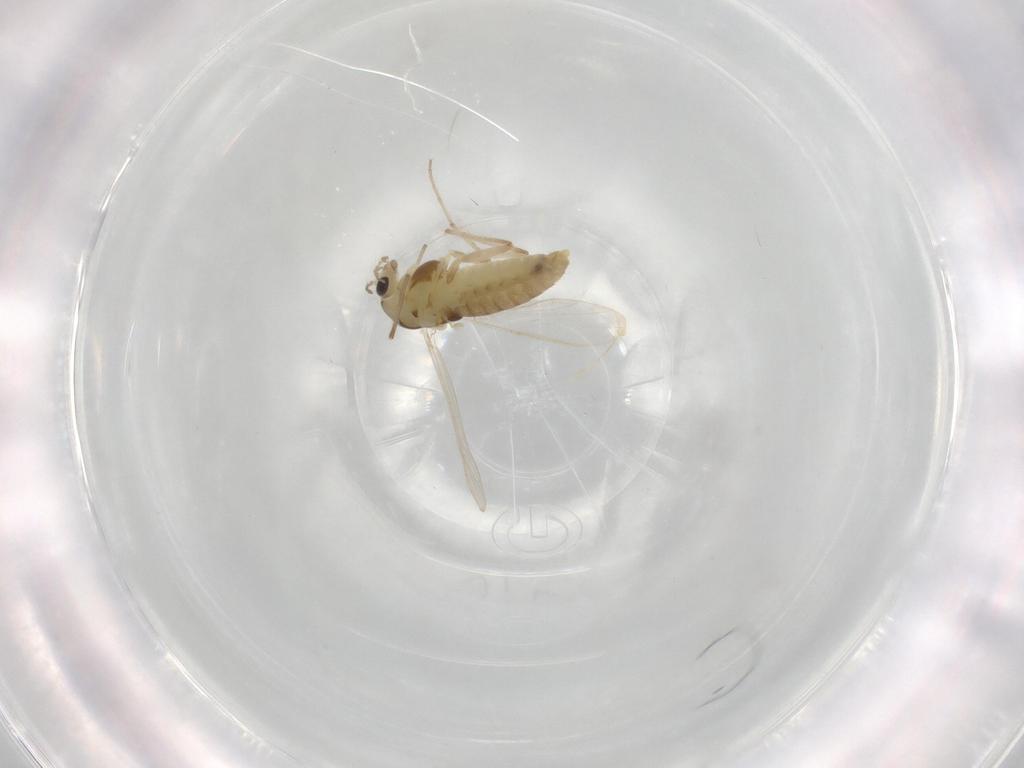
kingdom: Animalia
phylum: Arthropoda
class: Insecta
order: Diptera
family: Chironomidae
